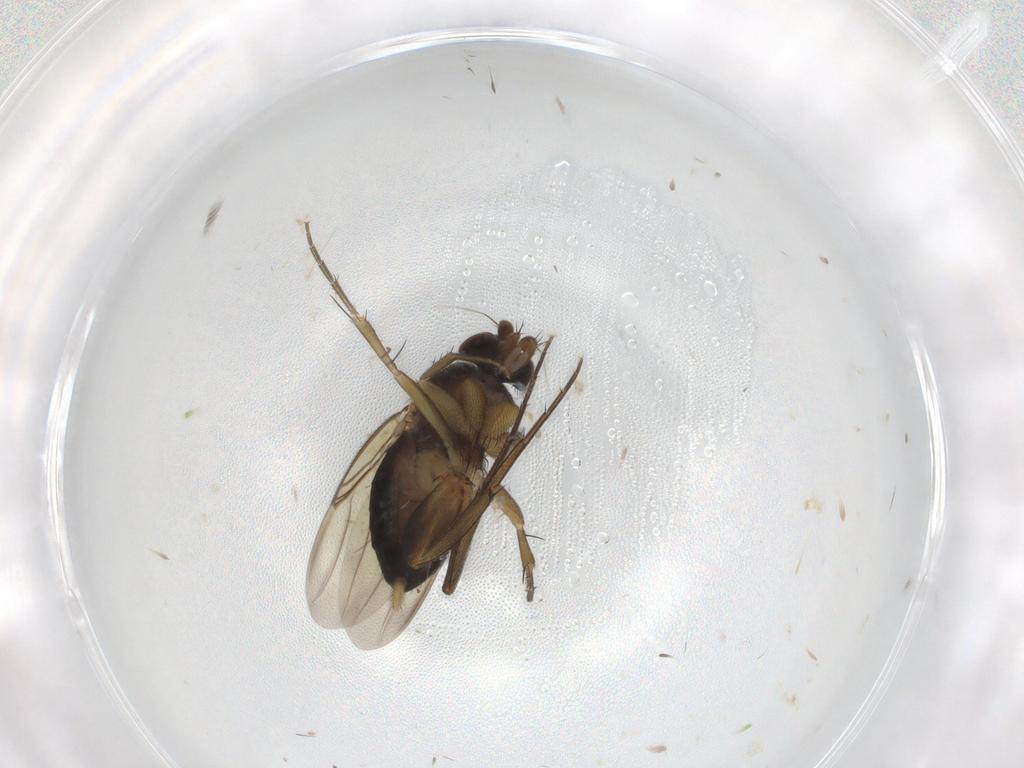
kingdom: Animalia
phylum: Arthropoda
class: Insecta
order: Diptera
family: Phoridae
